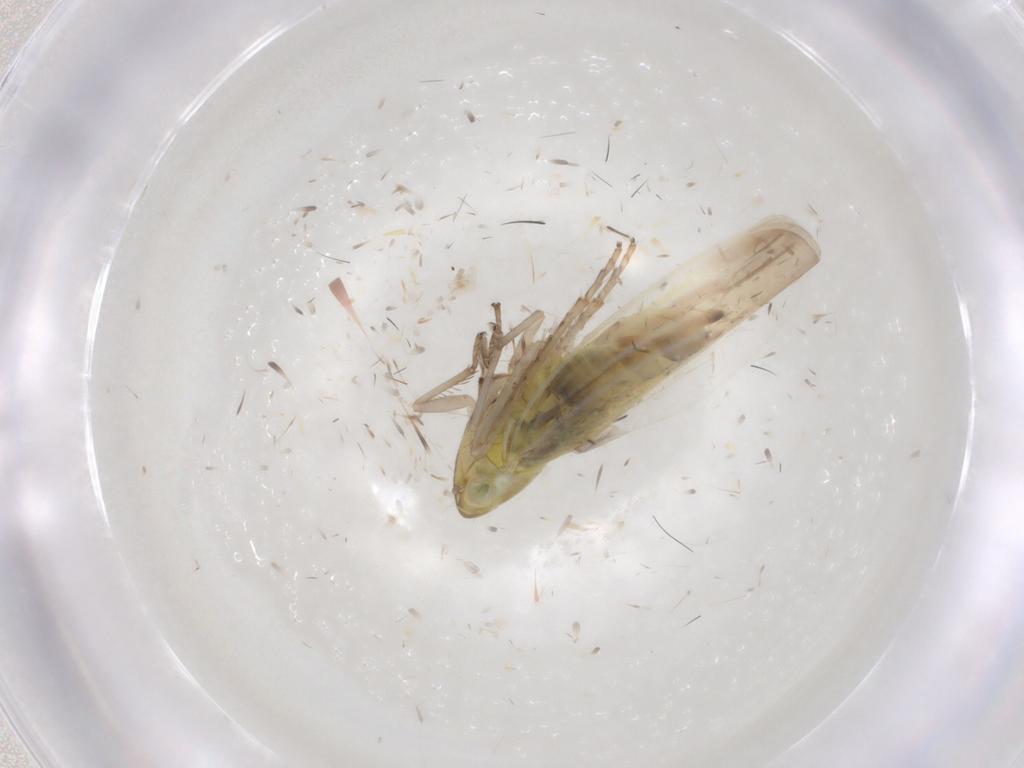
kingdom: Animalia
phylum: Arthropoda
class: Insecta
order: Hemiptera
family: Cicadellidae
